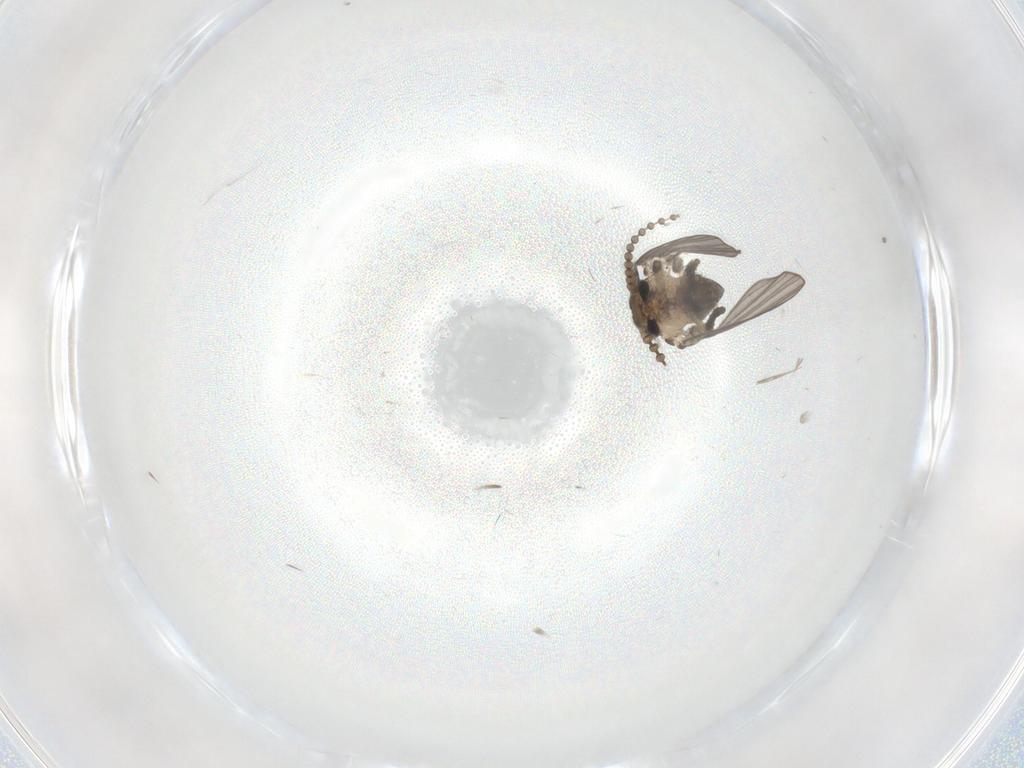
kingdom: Animalia
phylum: Arthropoda
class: Insecta
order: Diptera
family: Psychodidae
